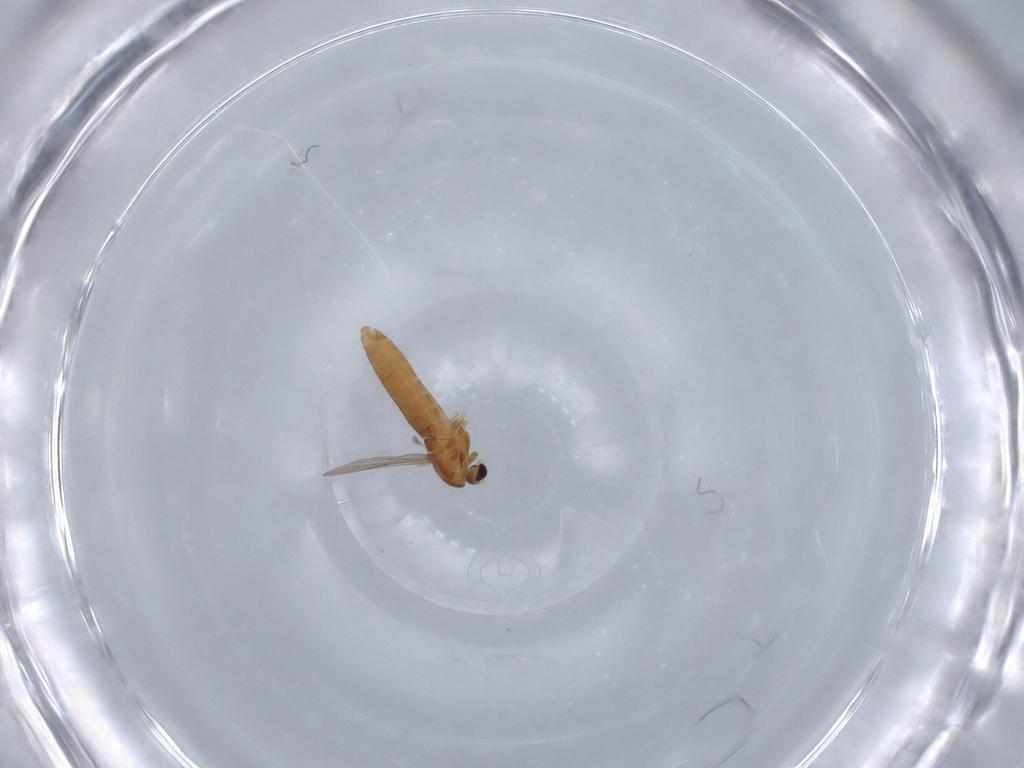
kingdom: Animalia
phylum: Arthropoda
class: Insecta
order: Diptera
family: Chironomidae
